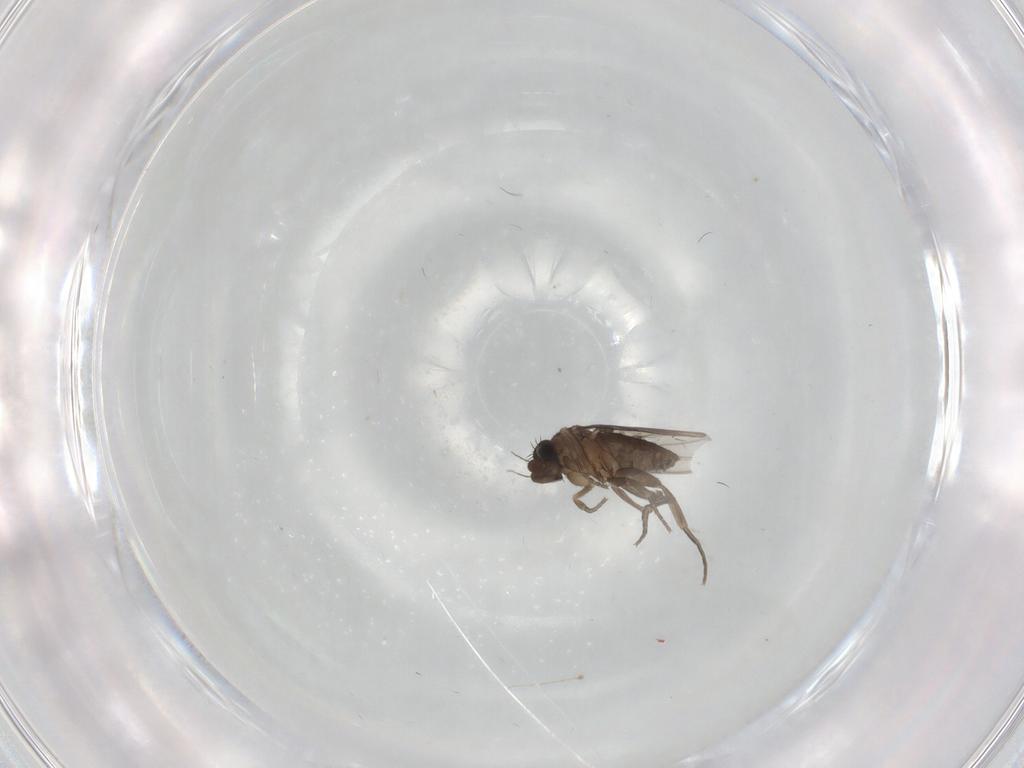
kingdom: Animalia
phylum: Arthropoda
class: Insecta
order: Diptera
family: Phoridae
